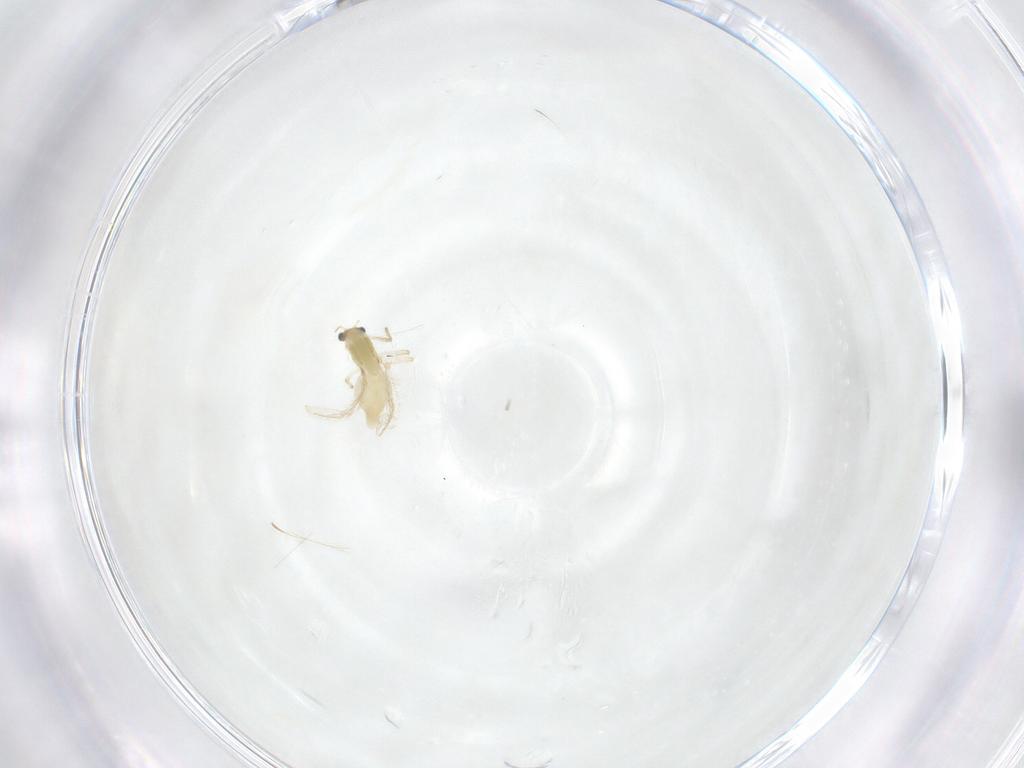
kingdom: Animalia
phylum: Arthropoda
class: Insecta
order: Diptera
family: Chironomidae
